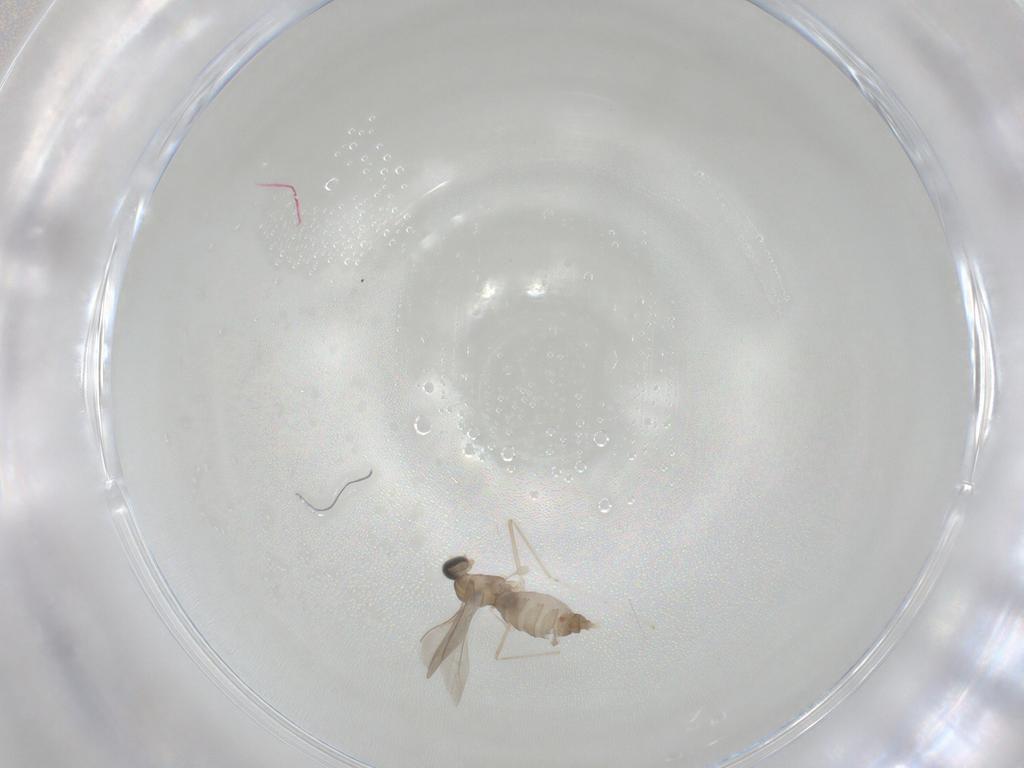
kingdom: Animalia
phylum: Arthropoda
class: Insecta
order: Diptera
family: Cecidomyiidae
